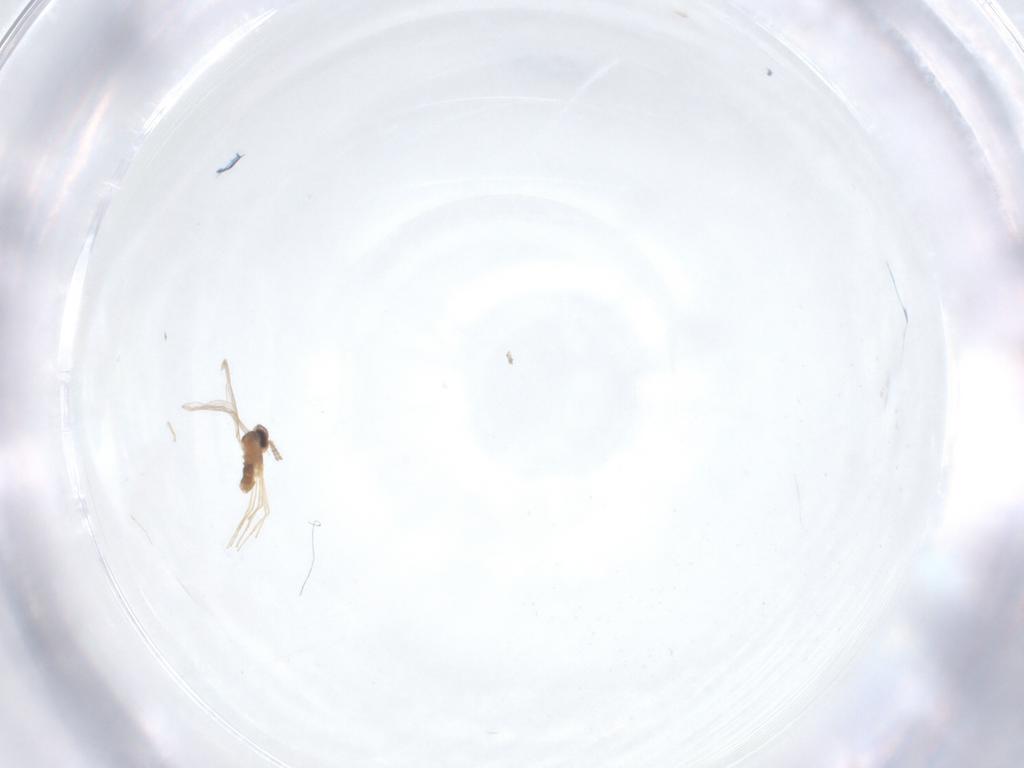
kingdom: Animalia
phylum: Arthropoda
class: Insecta
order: Diptera
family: Cecidomyiidae
